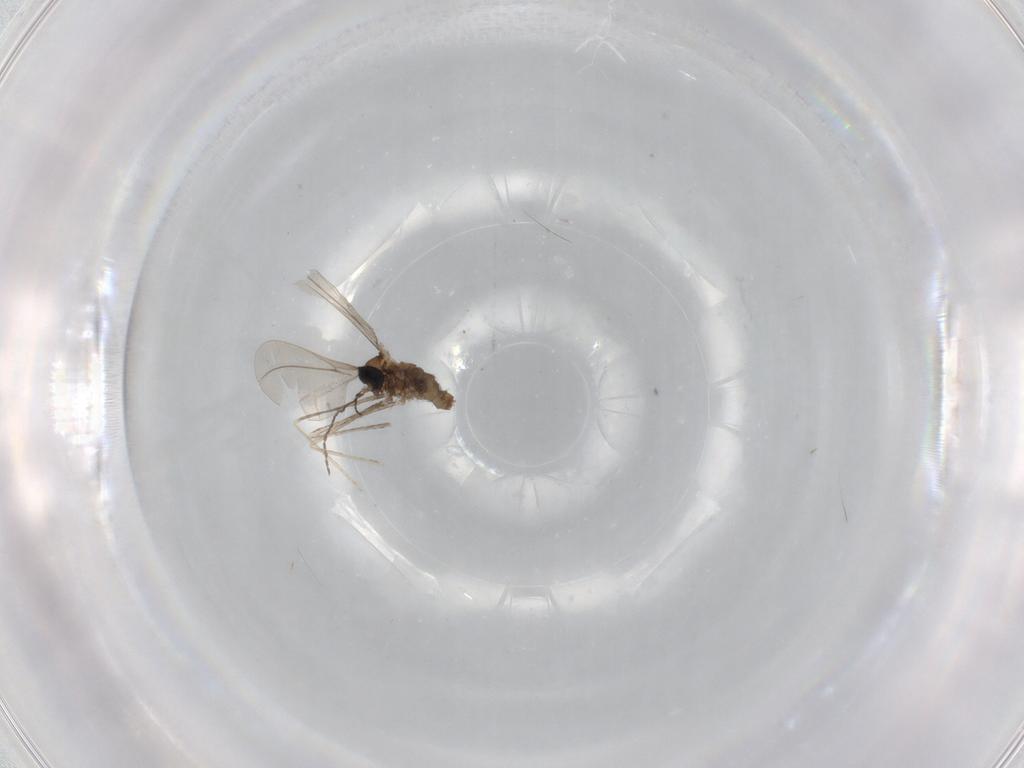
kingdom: Animalia
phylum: Arthropoda
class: Insecta
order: Diptera
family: Cecidomyiidae
